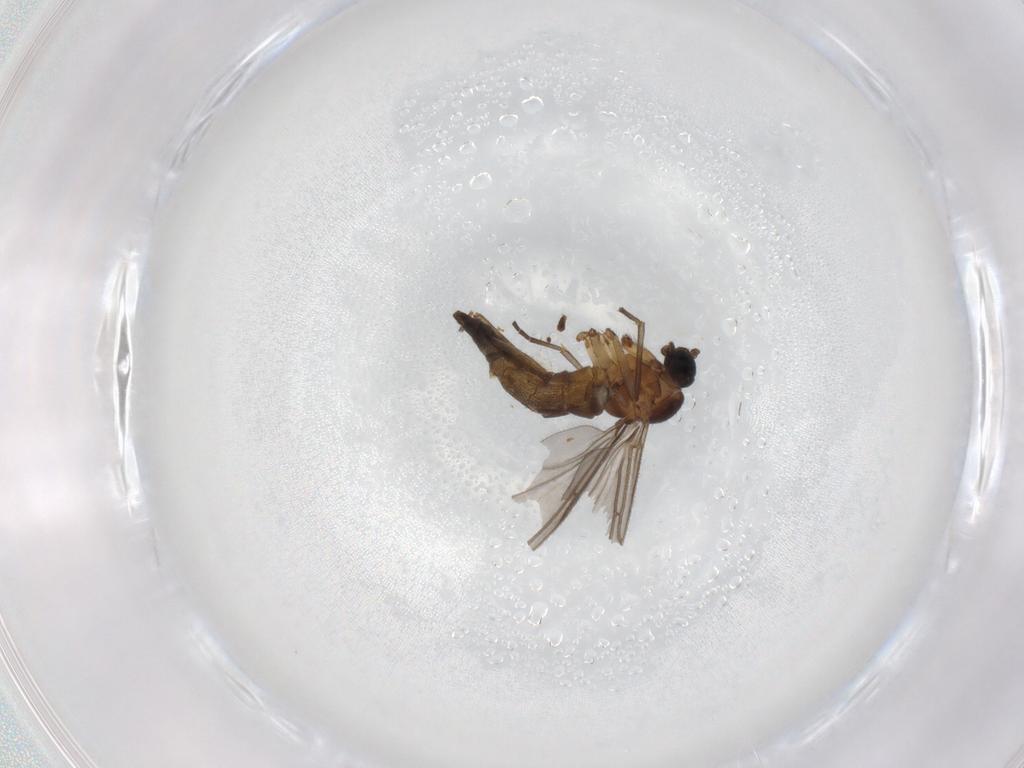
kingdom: Animalia
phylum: Arthropoda
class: Insecta
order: Diptera
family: Sciaridae
